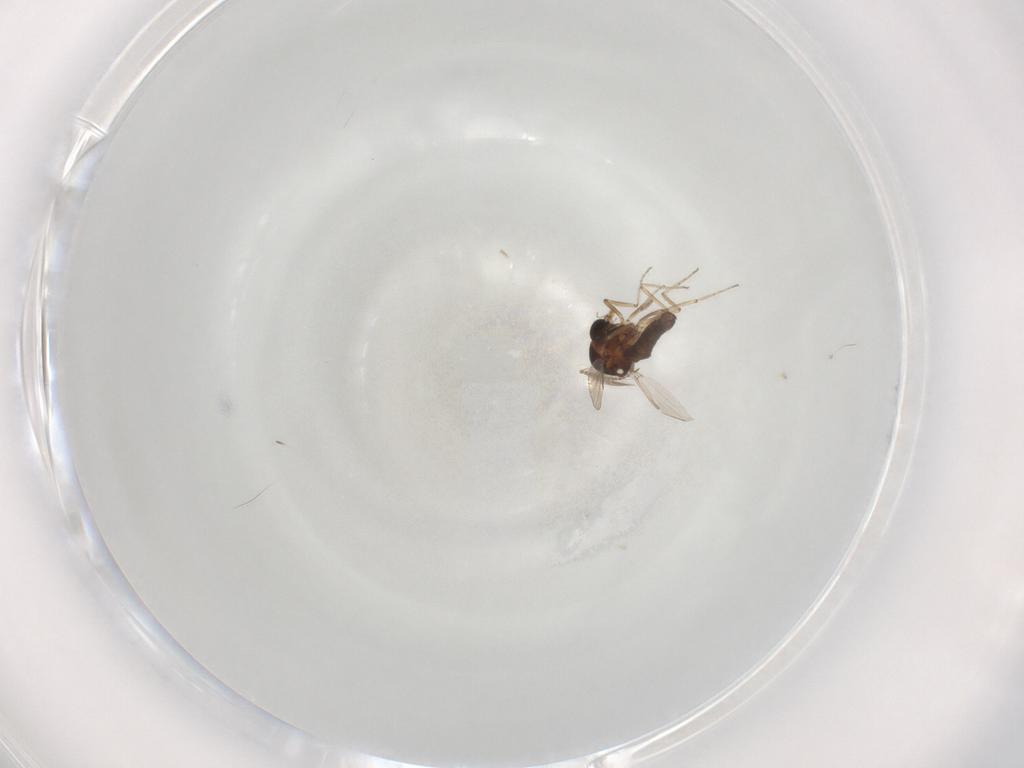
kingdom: Animalia
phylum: Arthropoda
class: Insecta
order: Diptera
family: Ceratopogonidae
